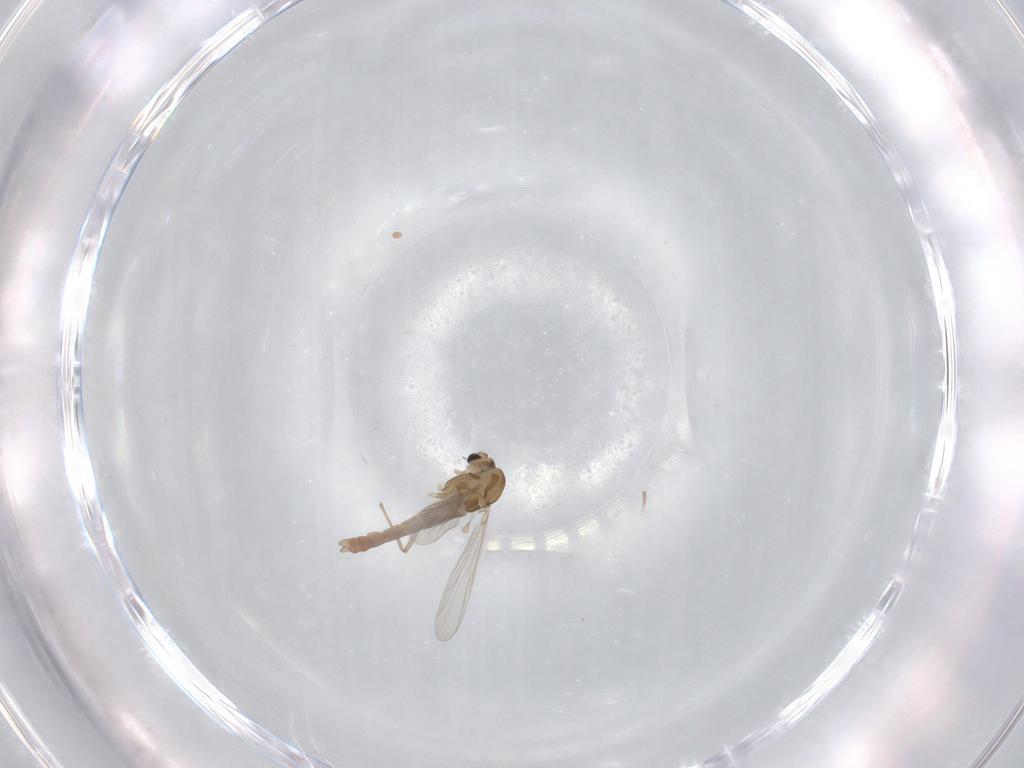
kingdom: Animalia
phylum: Arthropoda
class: Insecta
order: Diptera
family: Chironomidae
